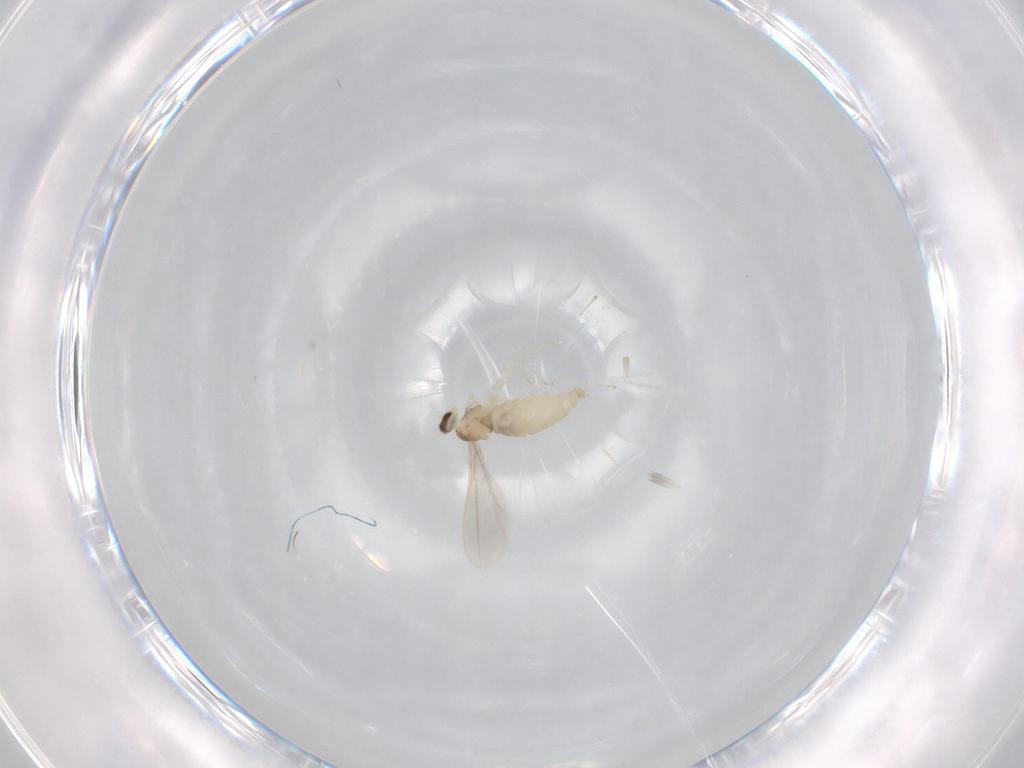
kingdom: Animalia
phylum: Arthropoda
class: Insecta
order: Diptera
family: Cecidomyiidae
